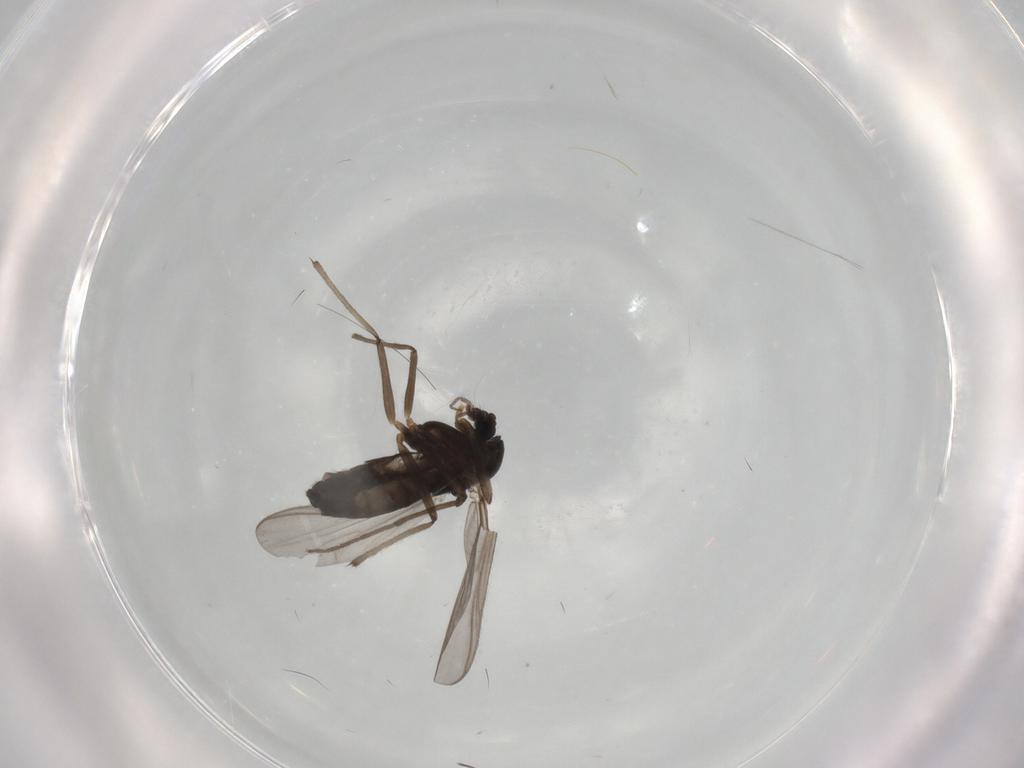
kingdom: Animalia
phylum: Arthropoda
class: Insecta
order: Diptera
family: Chironomidae
